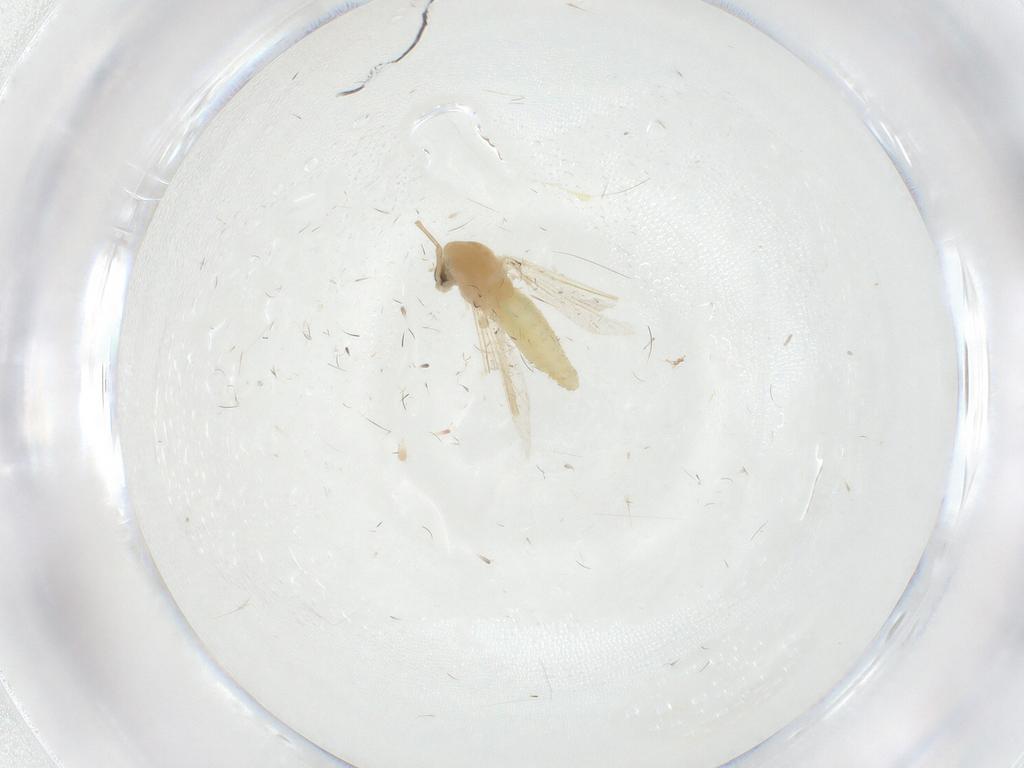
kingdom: Animalia
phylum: Arthropoda
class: Insecta
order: Diptera
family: Chironomidae
